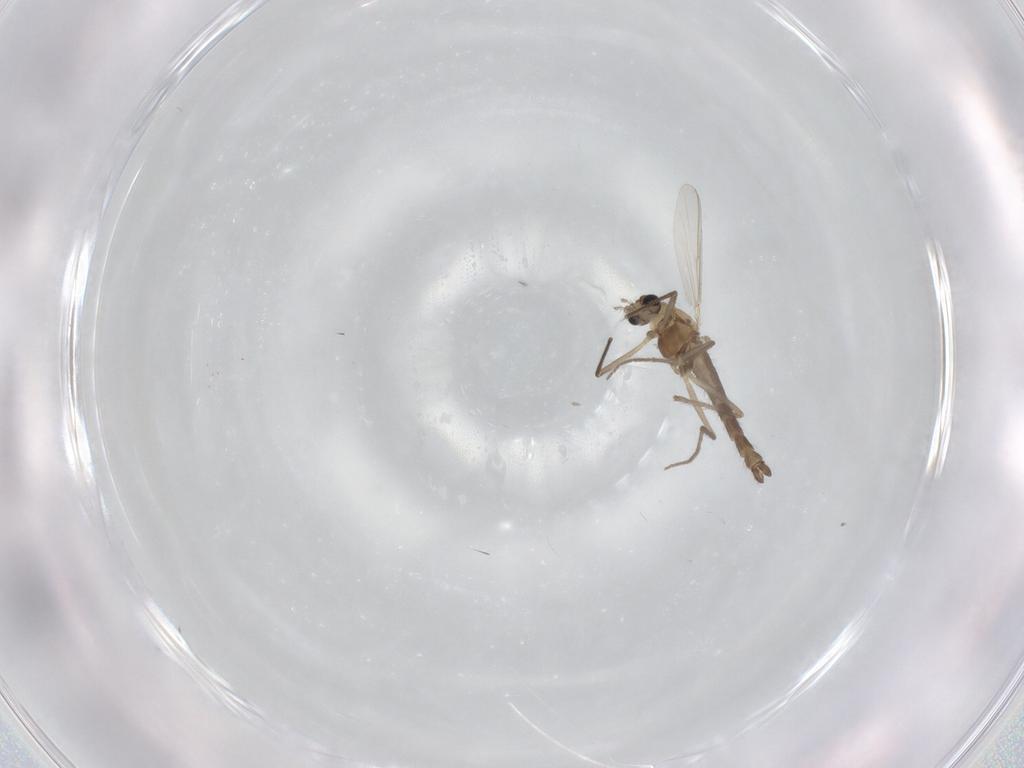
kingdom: Animalia
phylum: Arthropoda
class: Insecta
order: Diptera
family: Chironomidae
